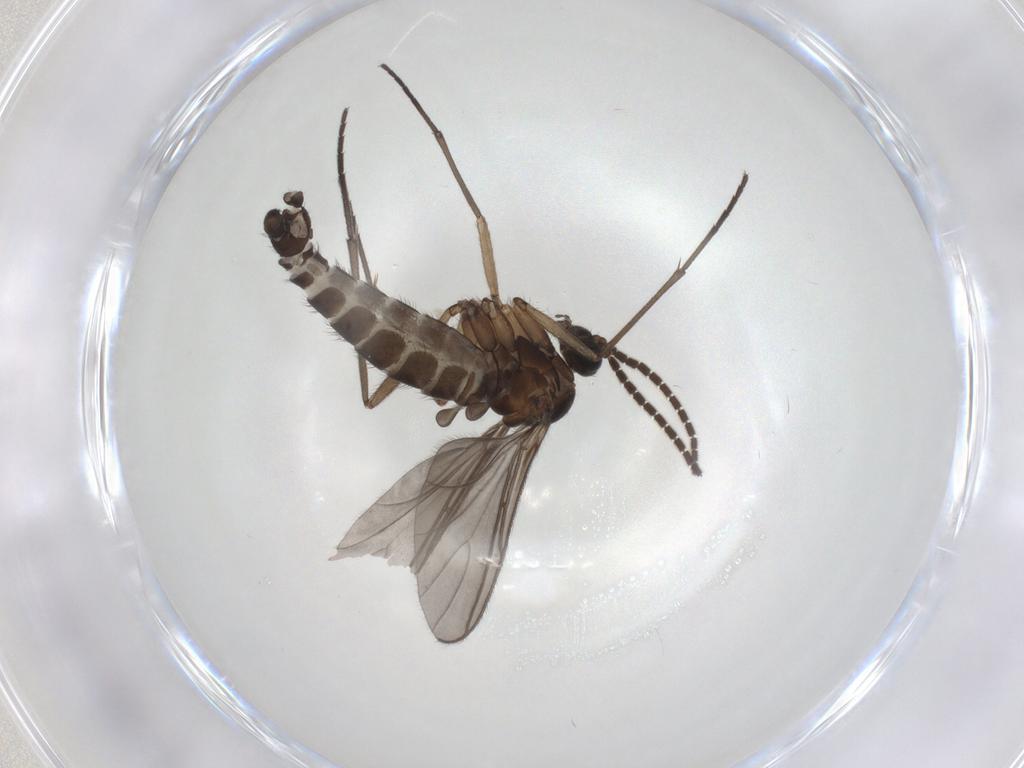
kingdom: Animalia
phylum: Arthropoda
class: Insecta
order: Diptera
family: Sciaridae
